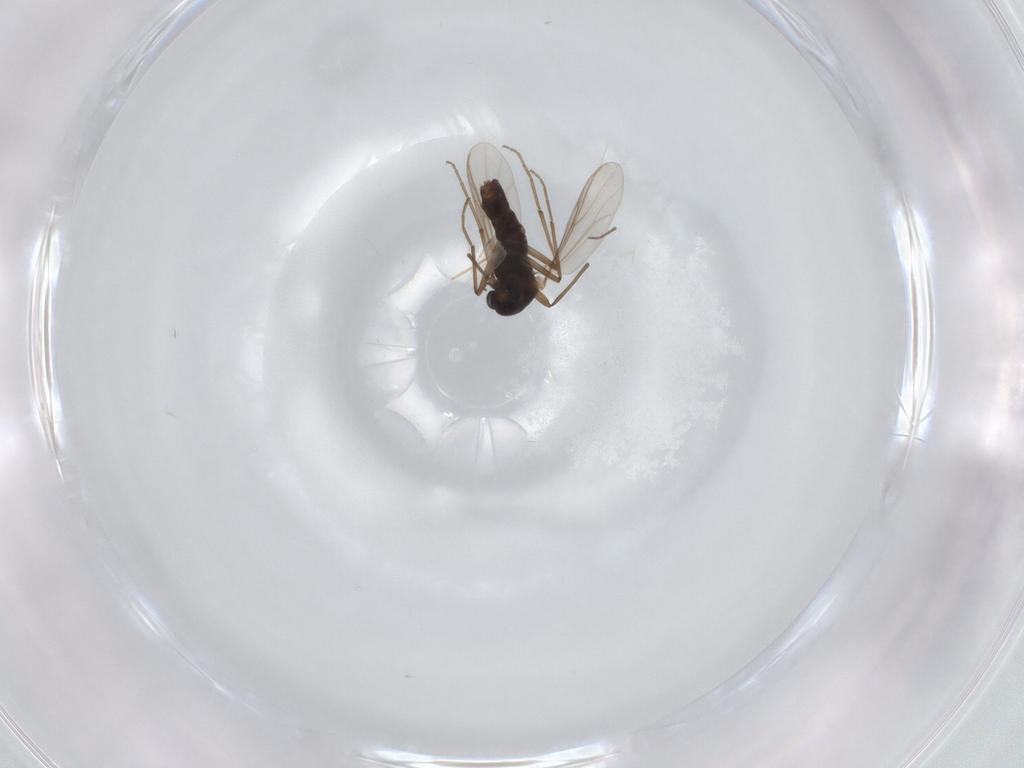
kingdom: Animalia
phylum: Arthropoda
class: Insecta
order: Diptera
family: Chironomidae
